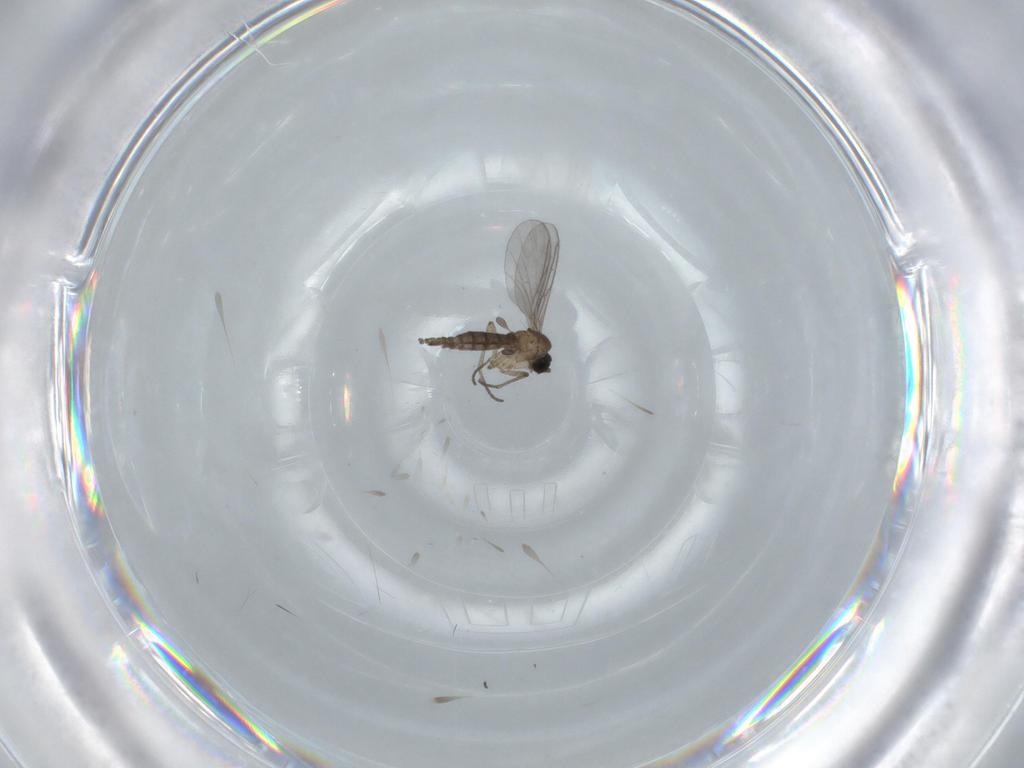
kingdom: Animalia
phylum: Arthropoda
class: Insecta
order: Diptera
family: Sciaridae
